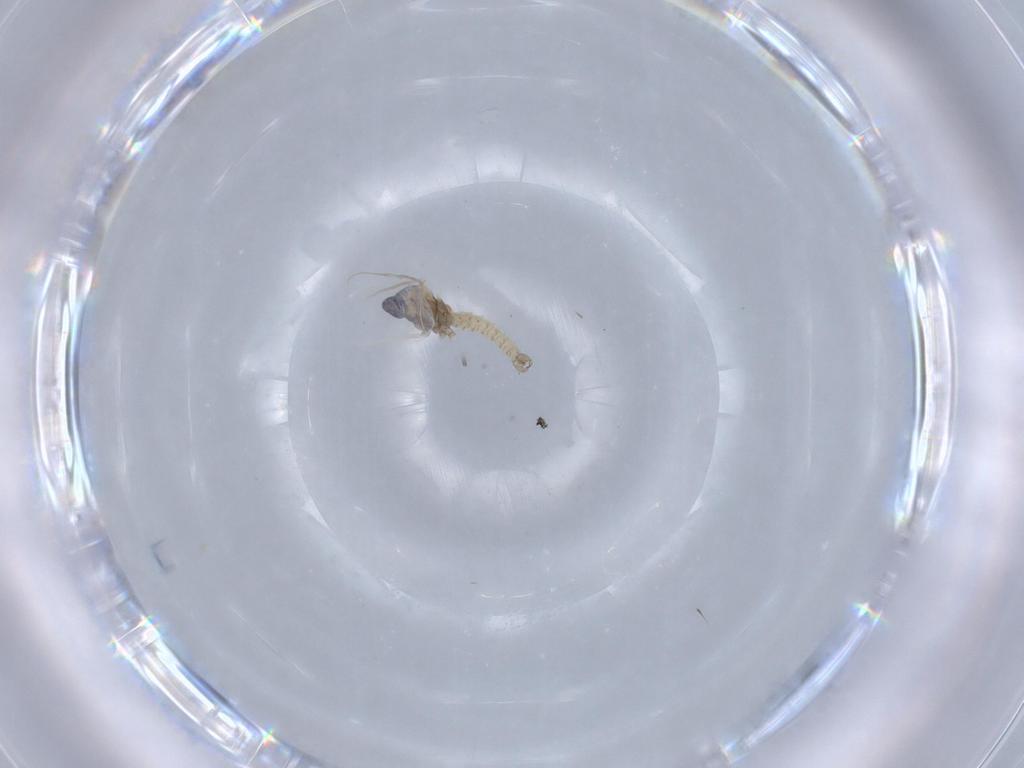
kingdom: Animalia
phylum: Arthropoda
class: Insecta
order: Diptera
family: Cecidomyiidae
